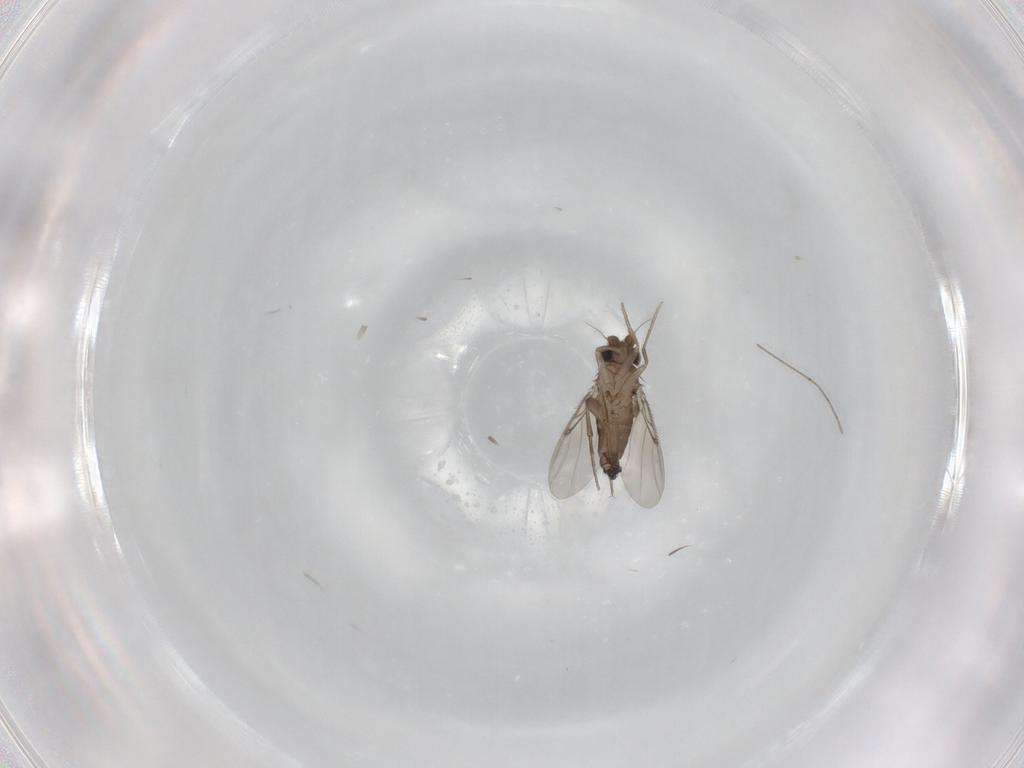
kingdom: Animalia
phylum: Arthropoda
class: Insecta
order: Diptera
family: Phoridae
